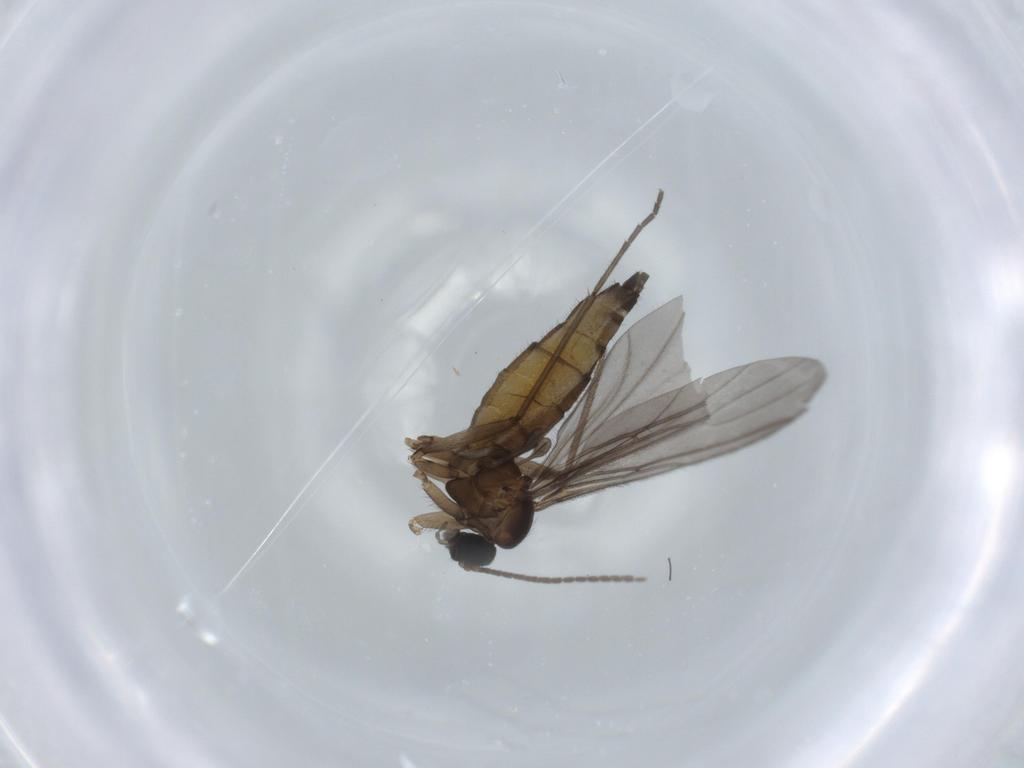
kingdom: Animalia
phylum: Arthropoda
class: Insecta
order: Diptera
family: Sciaridae
